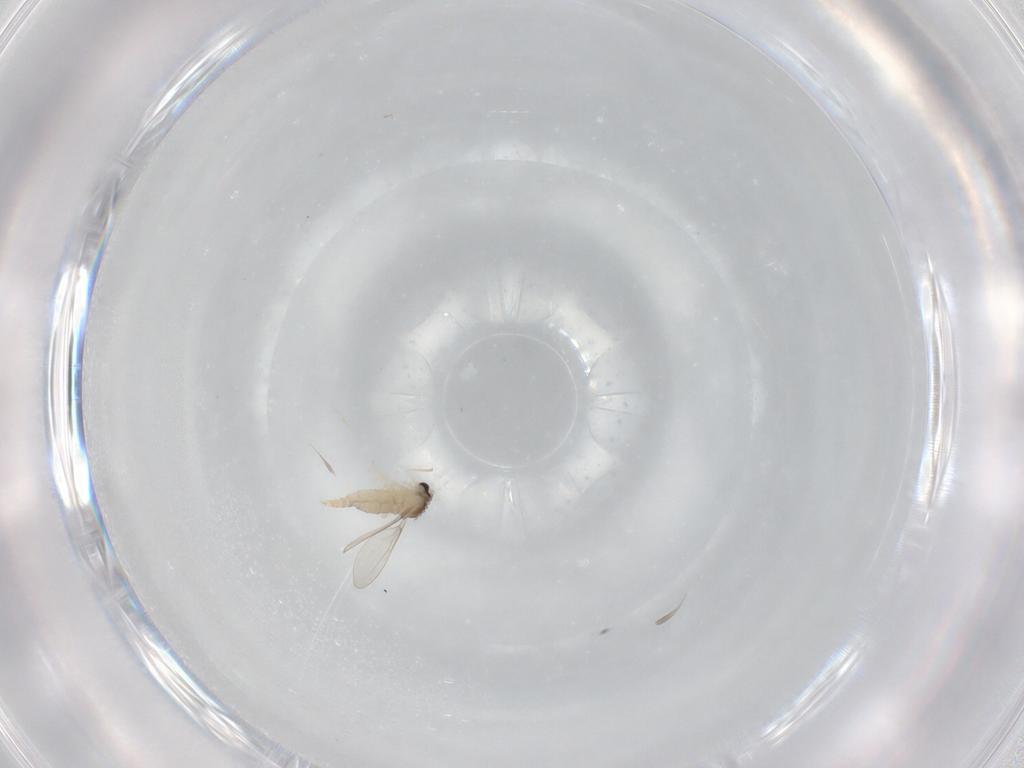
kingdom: Animalia
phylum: Arthropoda
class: Insecta
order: Diptera
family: Cecidomyiidae
